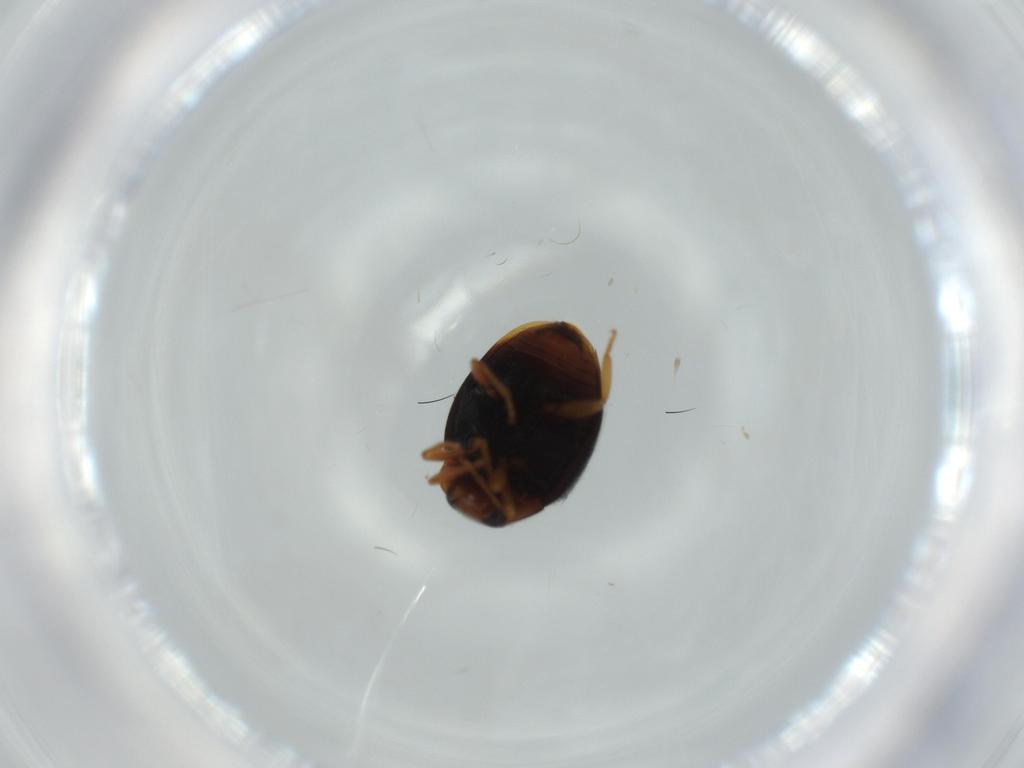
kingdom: Animalia
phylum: Arthropoda
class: Insecta
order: Coleoptera
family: Coccinellidae
